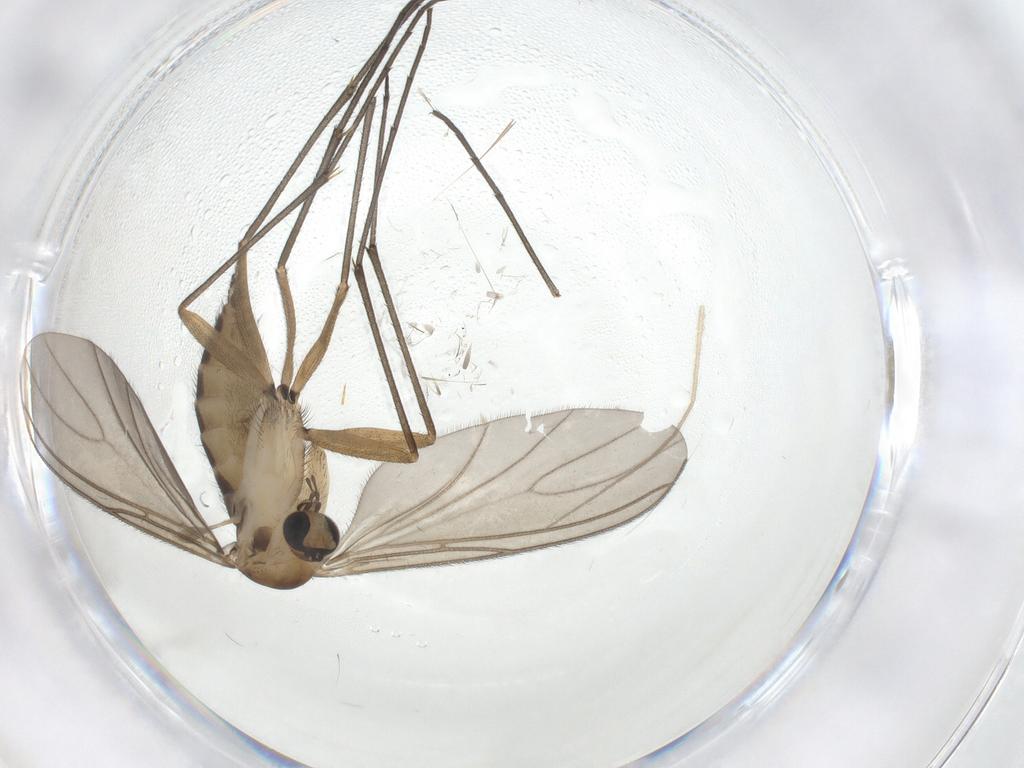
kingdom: Animalia
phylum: Arthropoda
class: Insecta
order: Diptera
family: Sciaridae
